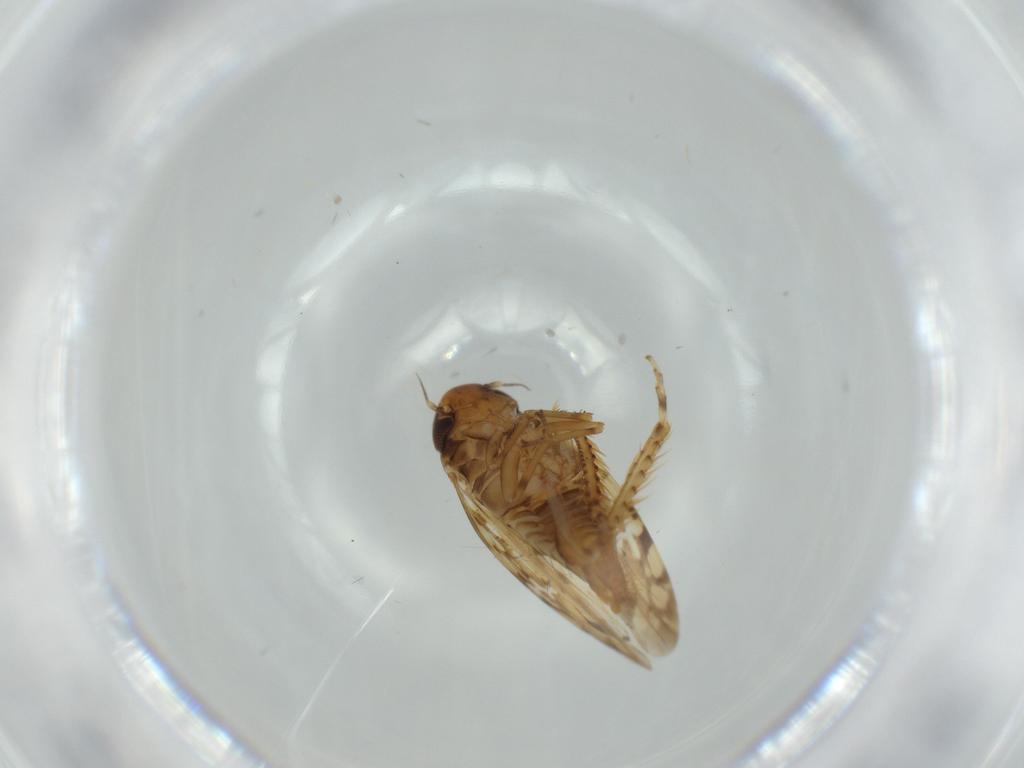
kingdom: Animalia
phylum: Arthropoda
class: Insecta
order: Hemiptera
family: Cicadellidae
